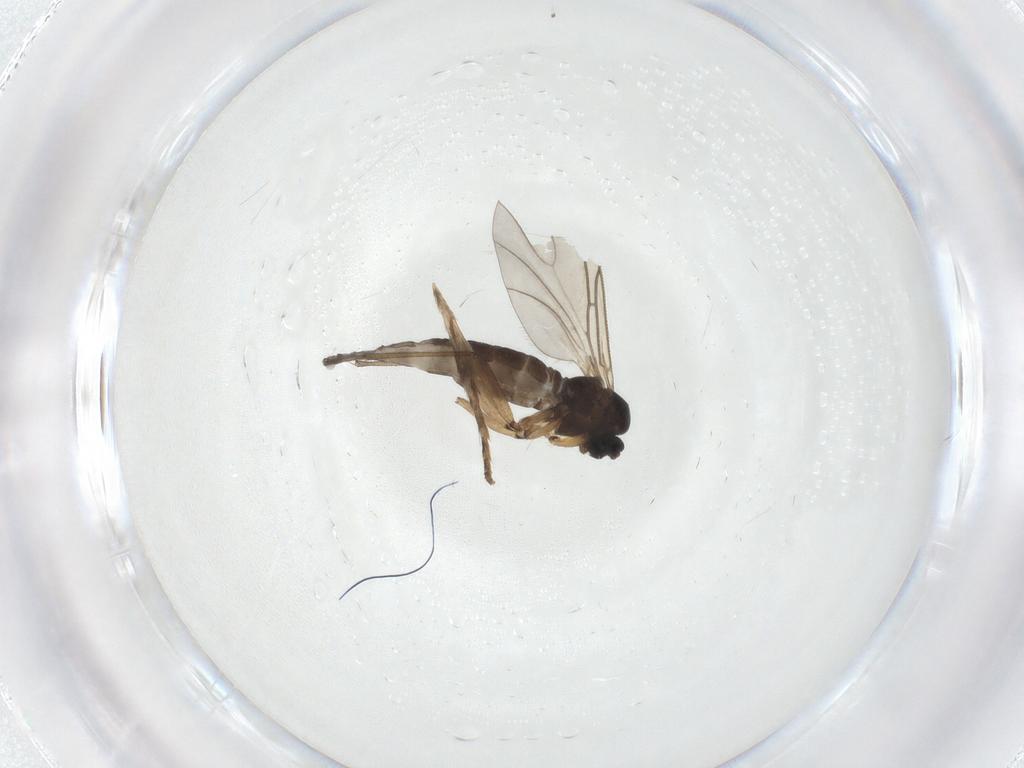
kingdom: Animalia
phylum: Arthropoda
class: Insecta
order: Diptera
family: Sciaridae
